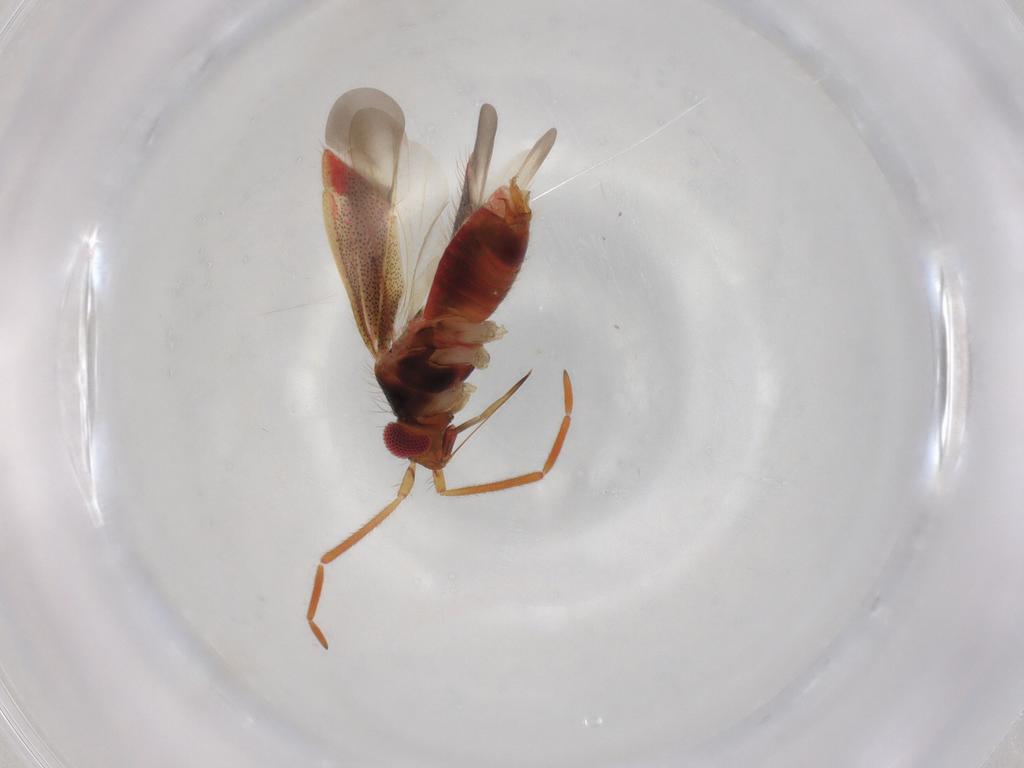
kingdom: Animalia
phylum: Arthropoda
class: Insecta
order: Hemiptera
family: Miridae
